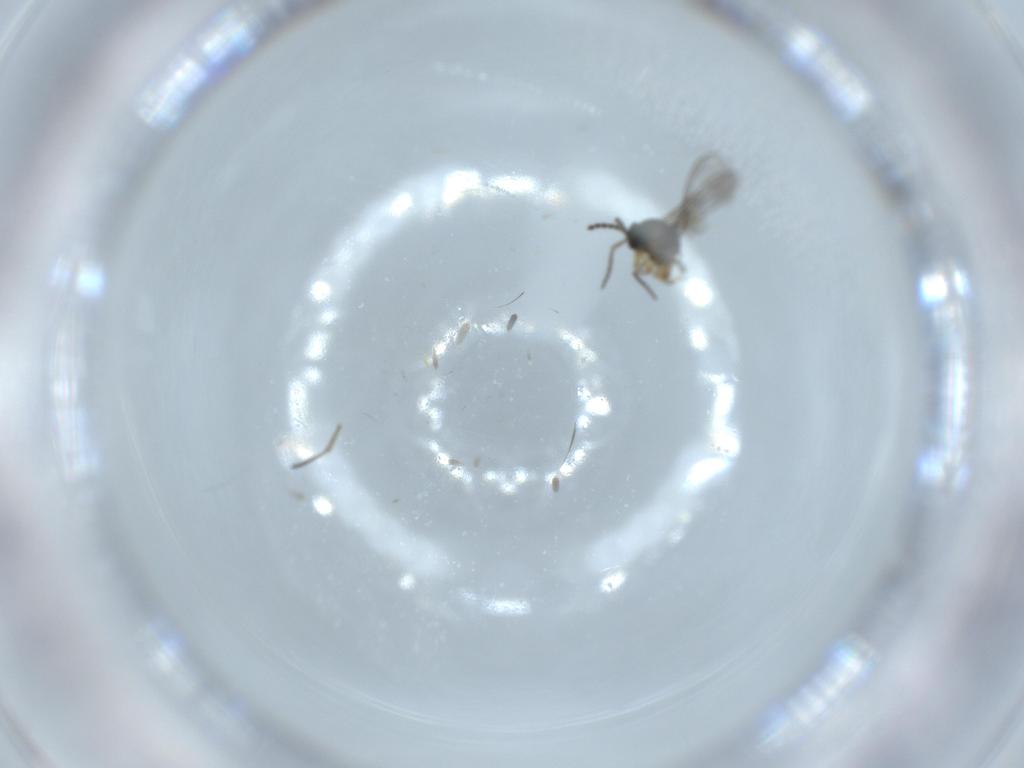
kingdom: Animalia
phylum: Arthropoda
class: Insecta
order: Diptera
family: Sciaridae
